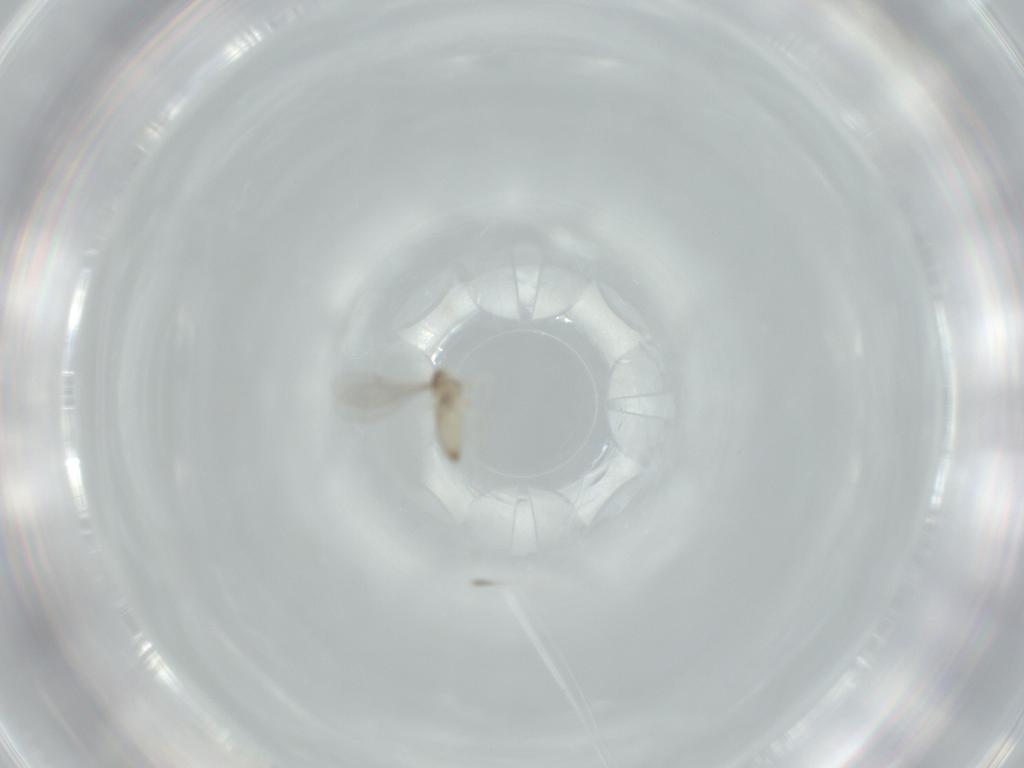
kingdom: Animalia
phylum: Arthropoda
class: Insecta
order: Diptera
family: Cecidomyiidae
